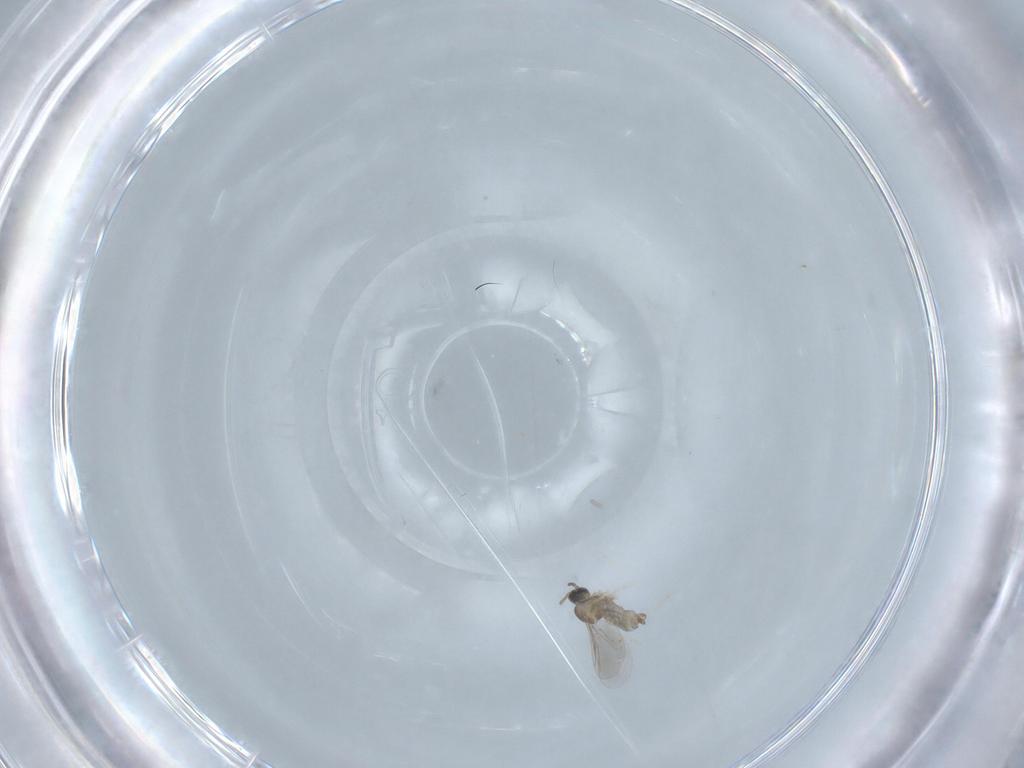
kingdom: Animalia
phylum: Arthropoda
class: Insecta
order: Diptera
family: Cecidomyiidae
